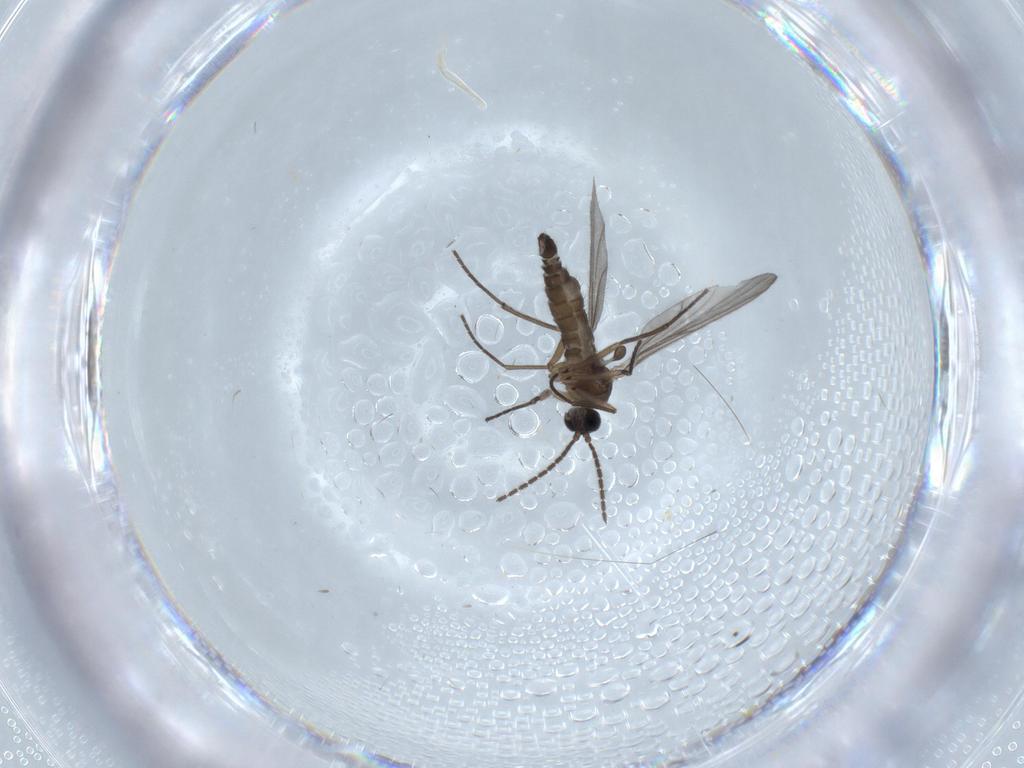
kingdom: Animalia
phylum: Arthropoda
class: Insecta
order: Diptera
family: Sciaridae
